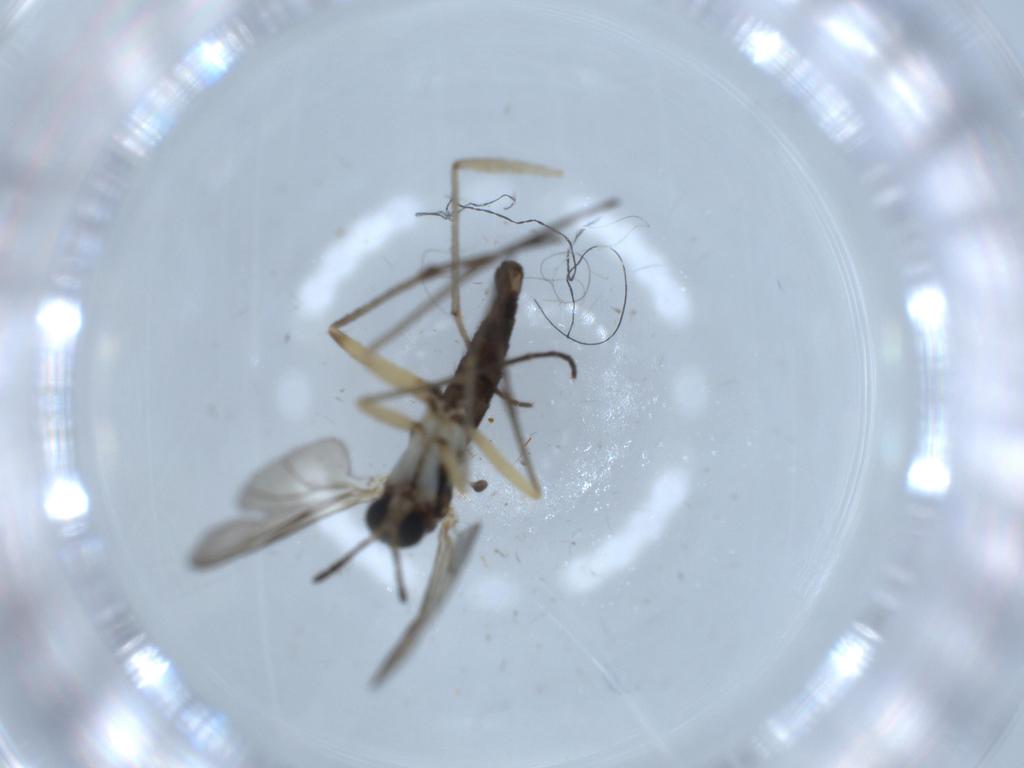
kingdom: Animalia
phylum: Arthropoda
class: Insecta
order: Diptera
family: Sciaridae
